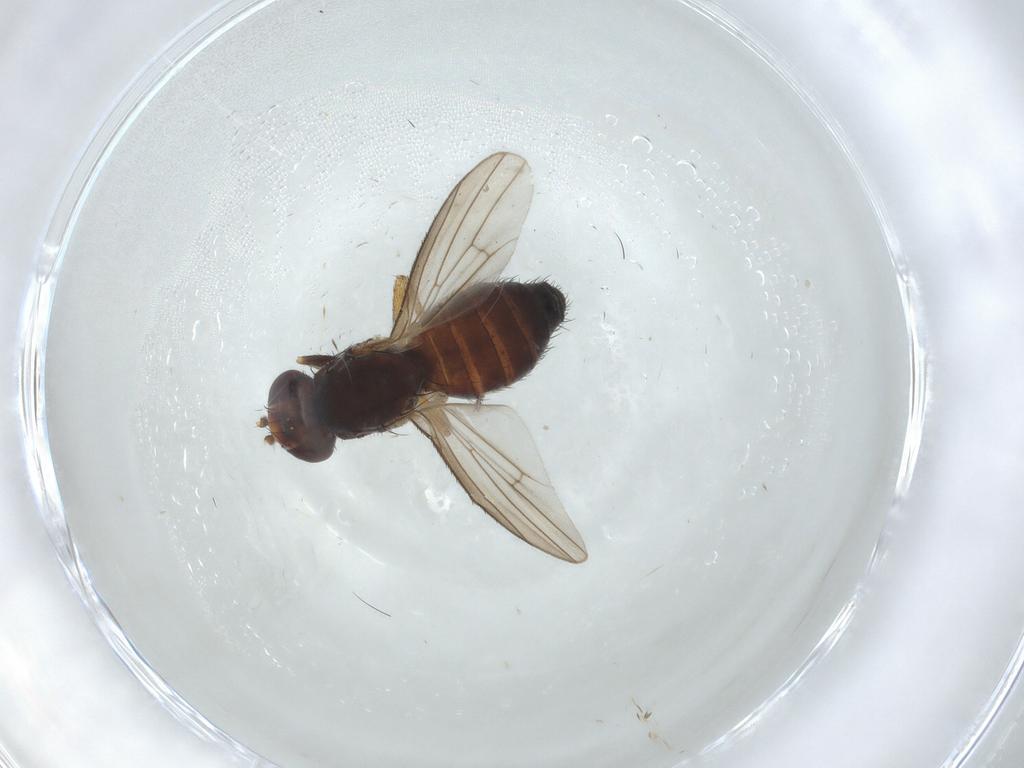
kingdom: Animalia
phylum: Arthropoda
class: Insecta
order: Diptera
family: Heleomyzidae
